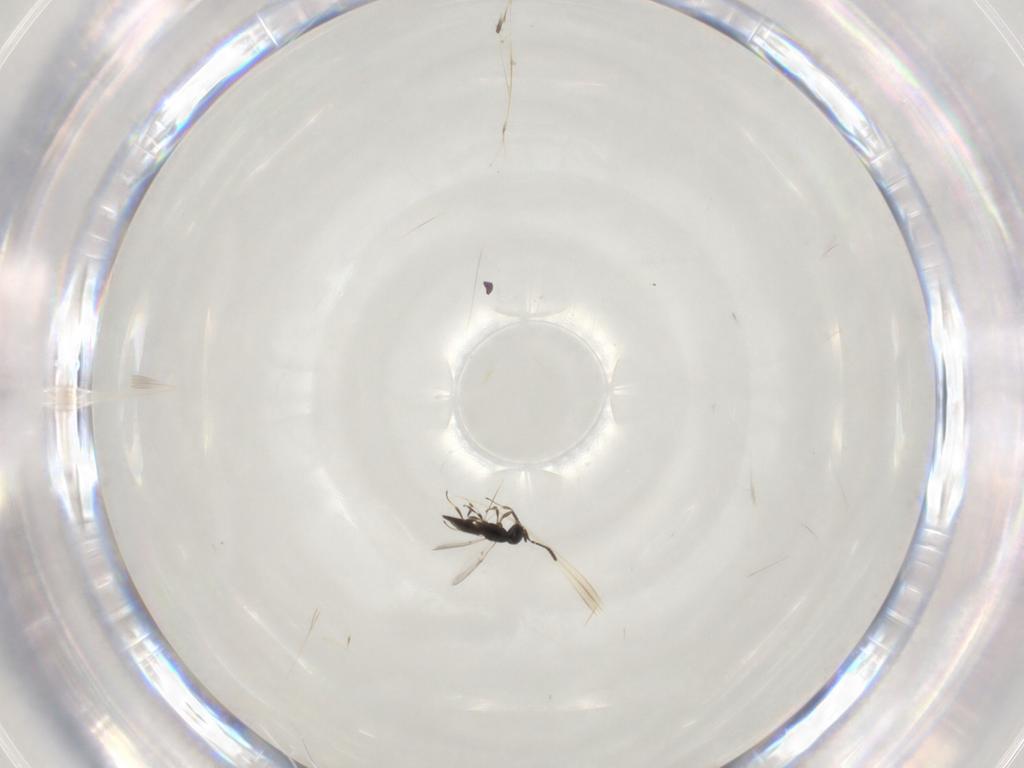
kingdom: Animalia
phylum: Arthropoda
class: Insecta
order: Hymenoptera
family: Scelionidae
